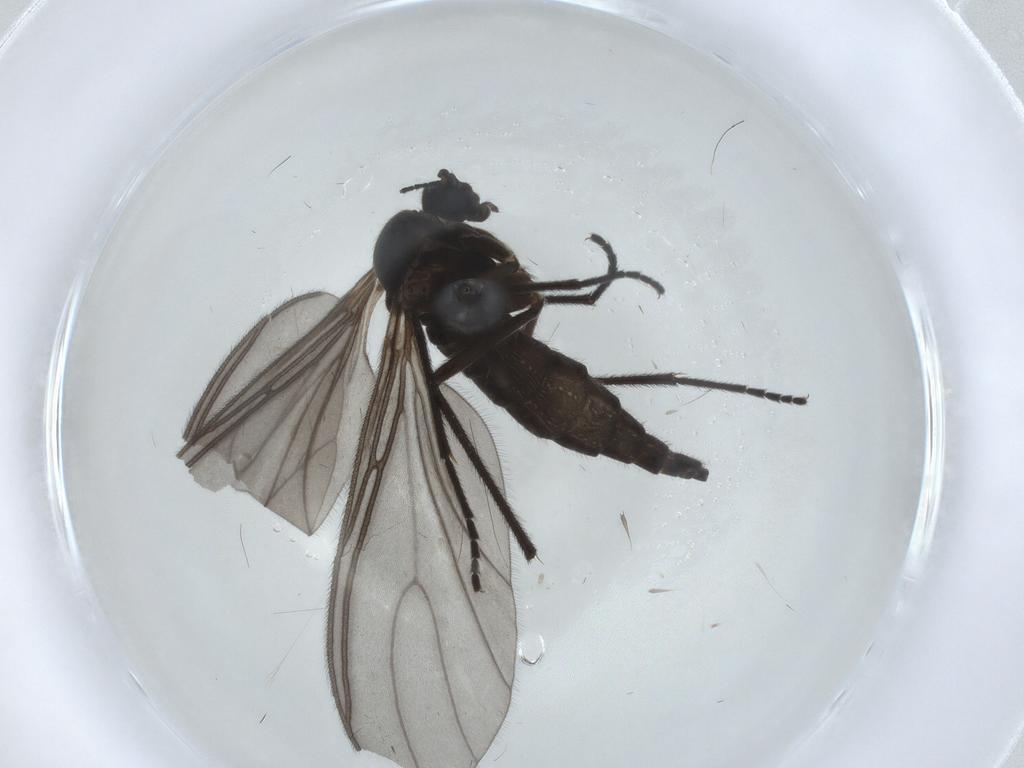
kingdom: Animalia
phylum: Arthropoda
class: Insecta
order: Diptera
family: Sciaridae
